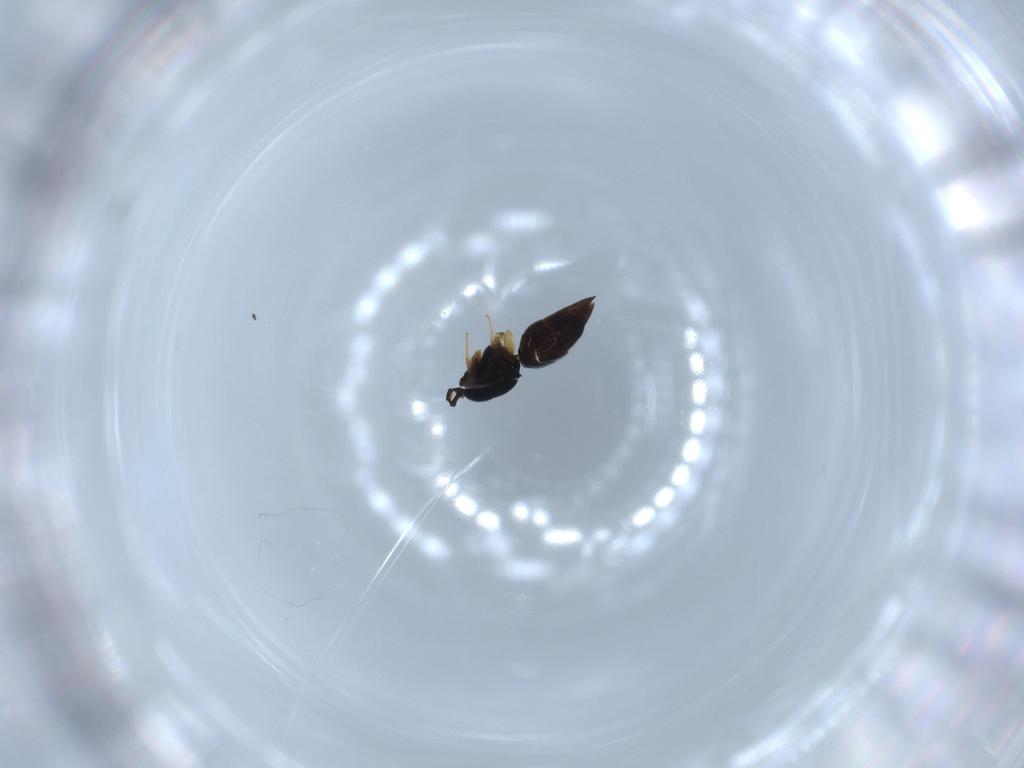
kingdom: Animalia
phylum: Arthropoda
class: Insecta
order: Hymenoptera
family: Ceraphronidae
